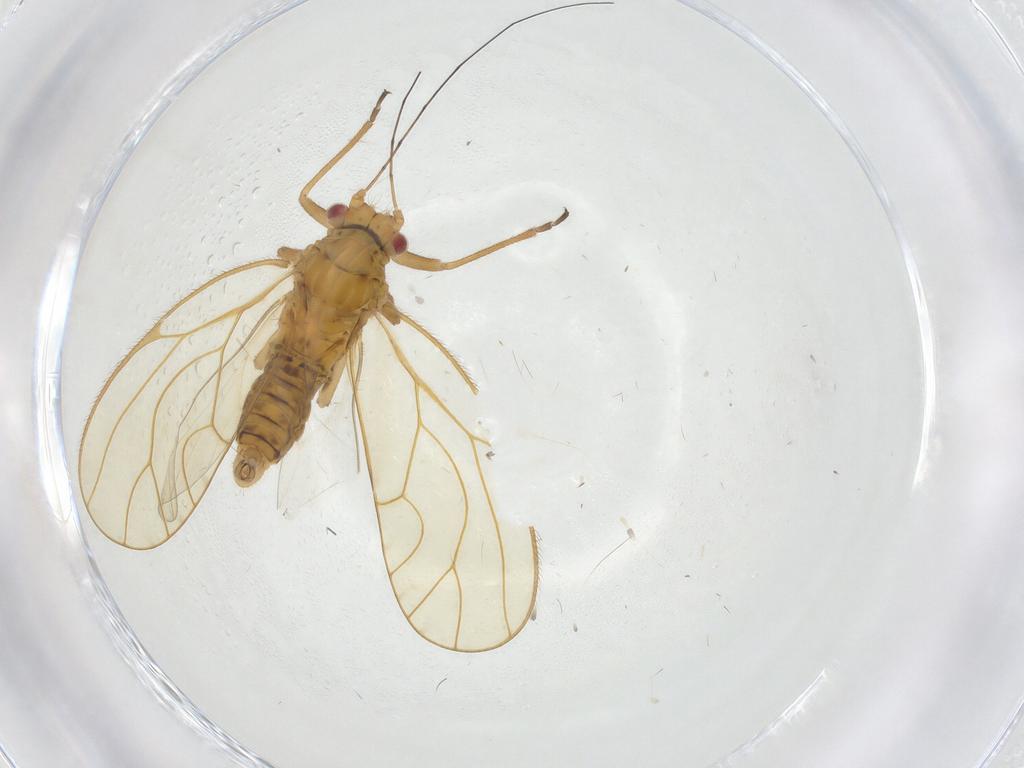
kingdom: Animalia
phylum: Arthropoda
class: Insecta
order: Hemiptera
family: Psyllidae
